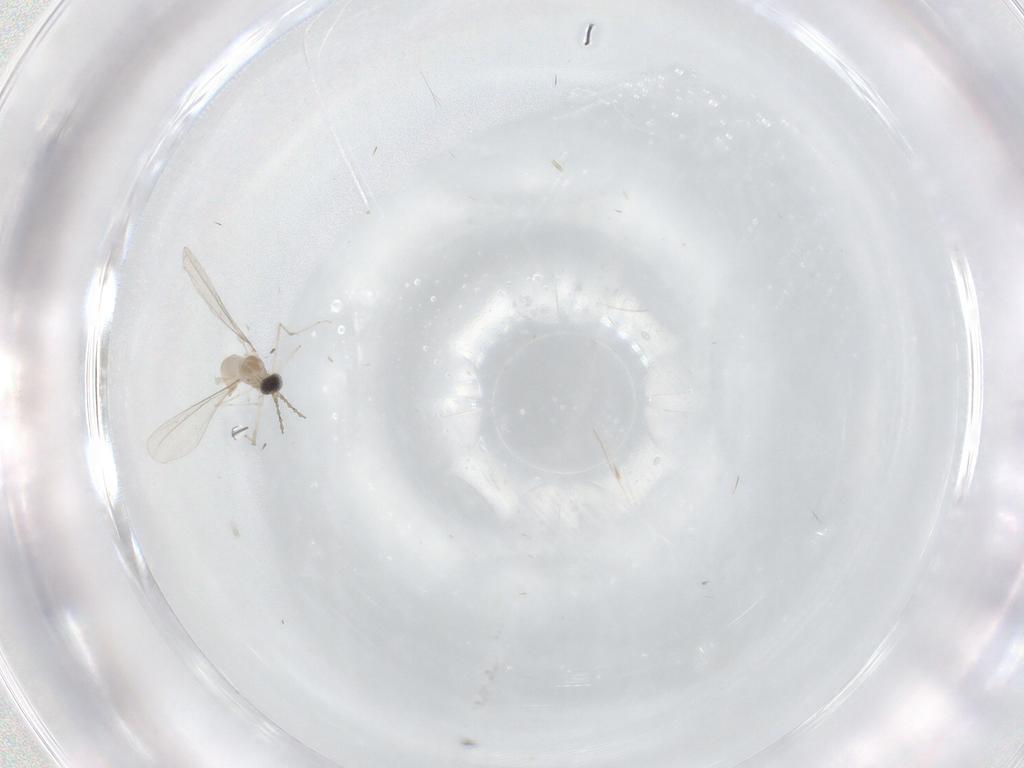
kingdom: Animalia
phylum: Arthropoda
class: Insecta
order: Diptera
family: Cecidomyiidae
